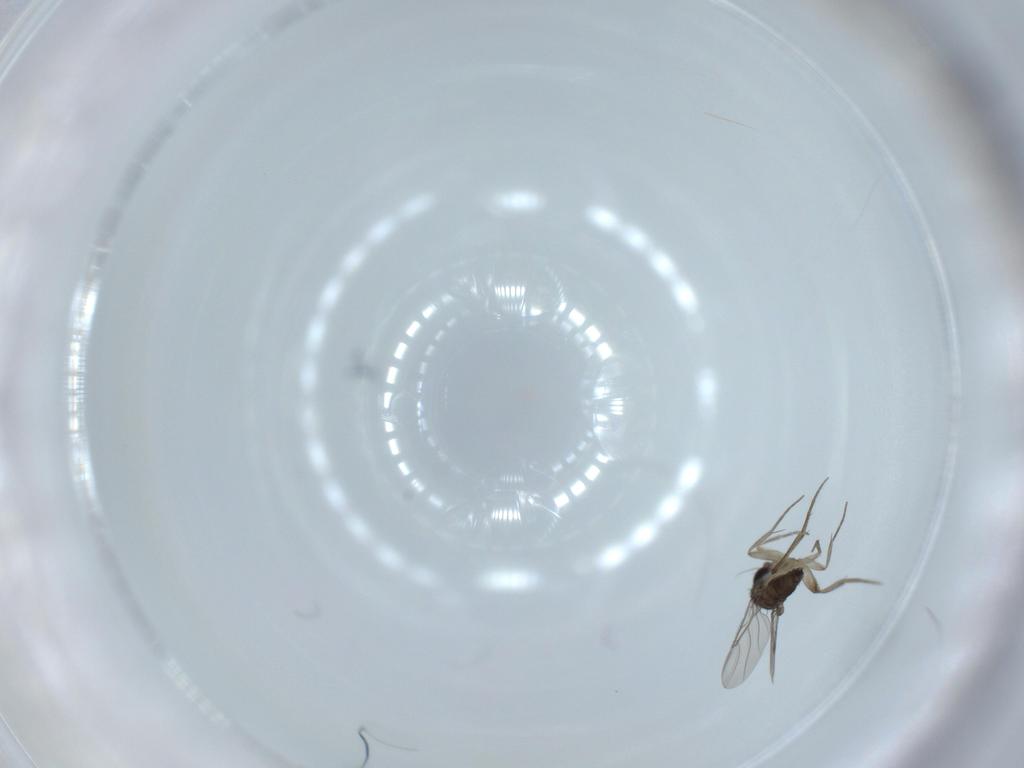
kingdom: Animalia
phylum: Arthropoda
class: Insecta
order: Diptera
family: Phoridae
